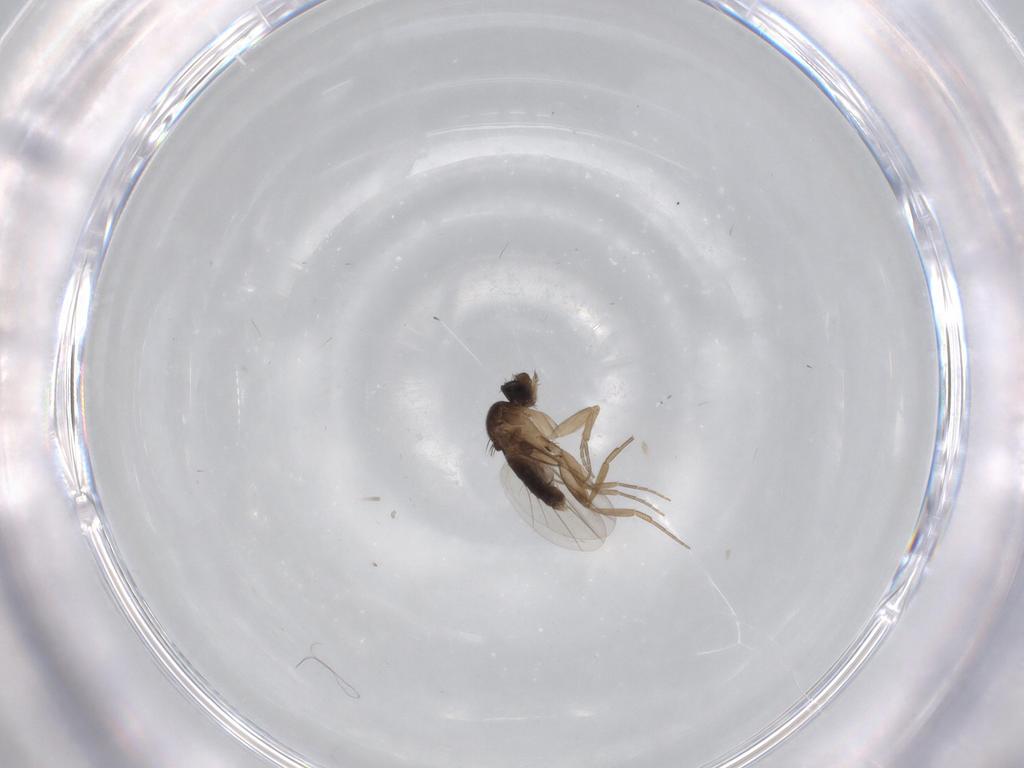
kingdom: Animalia
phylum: Arthropoda
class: Insecta
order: Diptera
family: Phoridae
